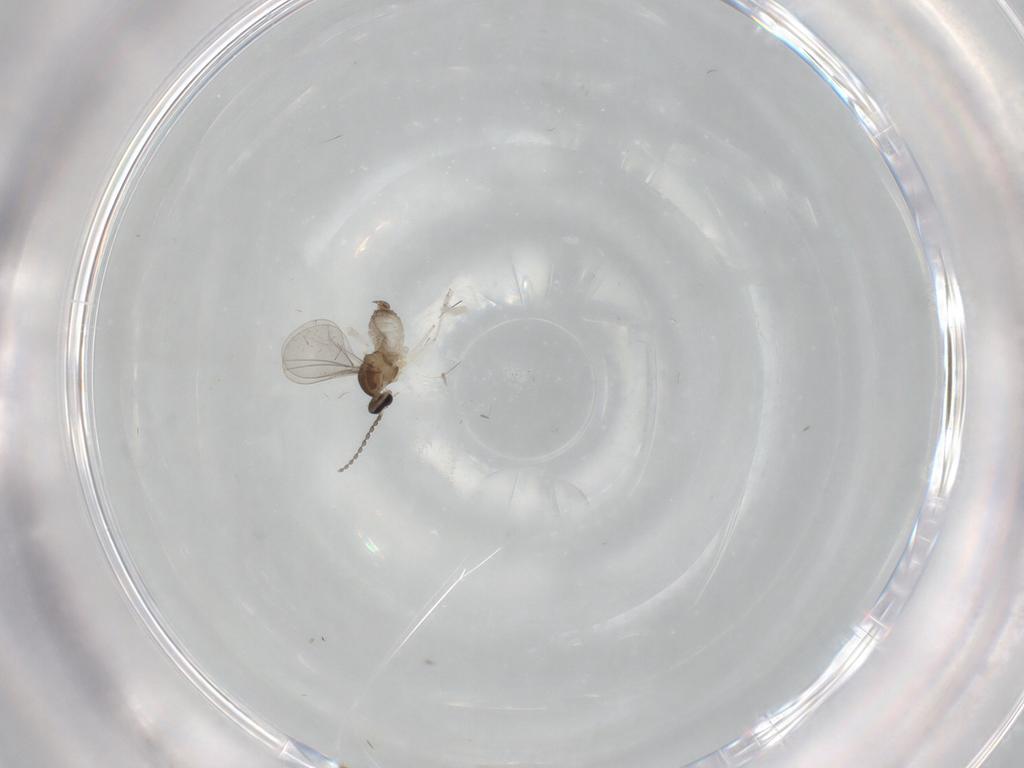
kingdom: Animalia
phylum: Arthropoda
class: Insecta
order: Diptera
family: Cecidomyiidae
